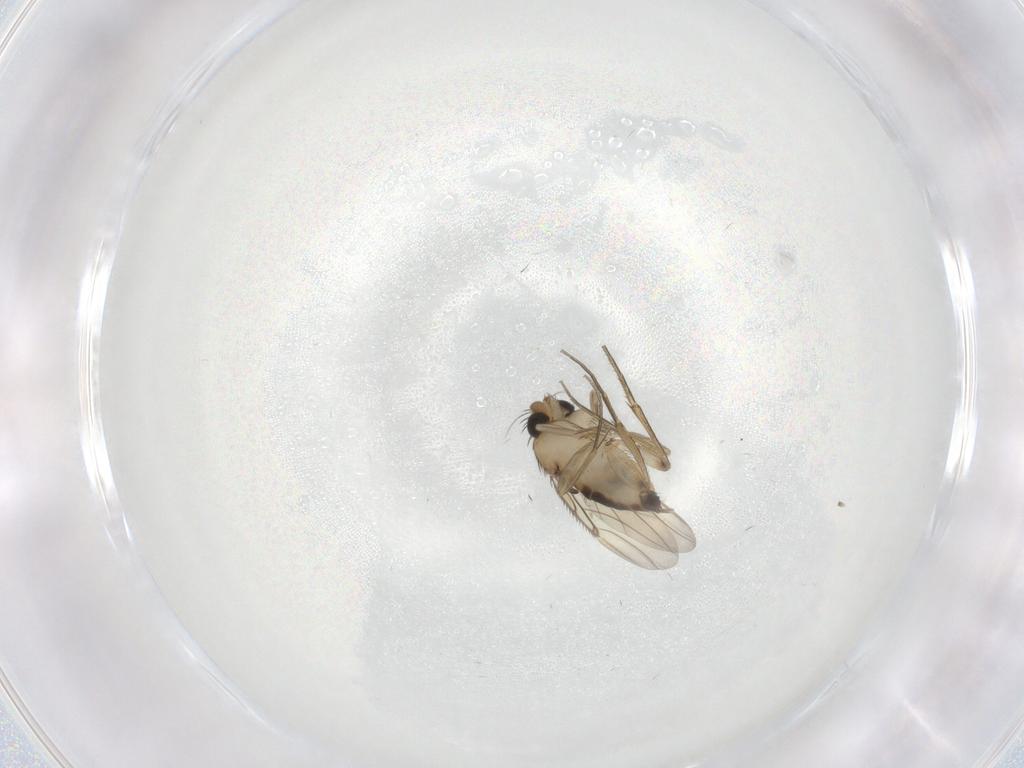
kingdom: Animalia
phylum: Arthropoda
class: Insecta
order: Diptera
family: Phoridae
